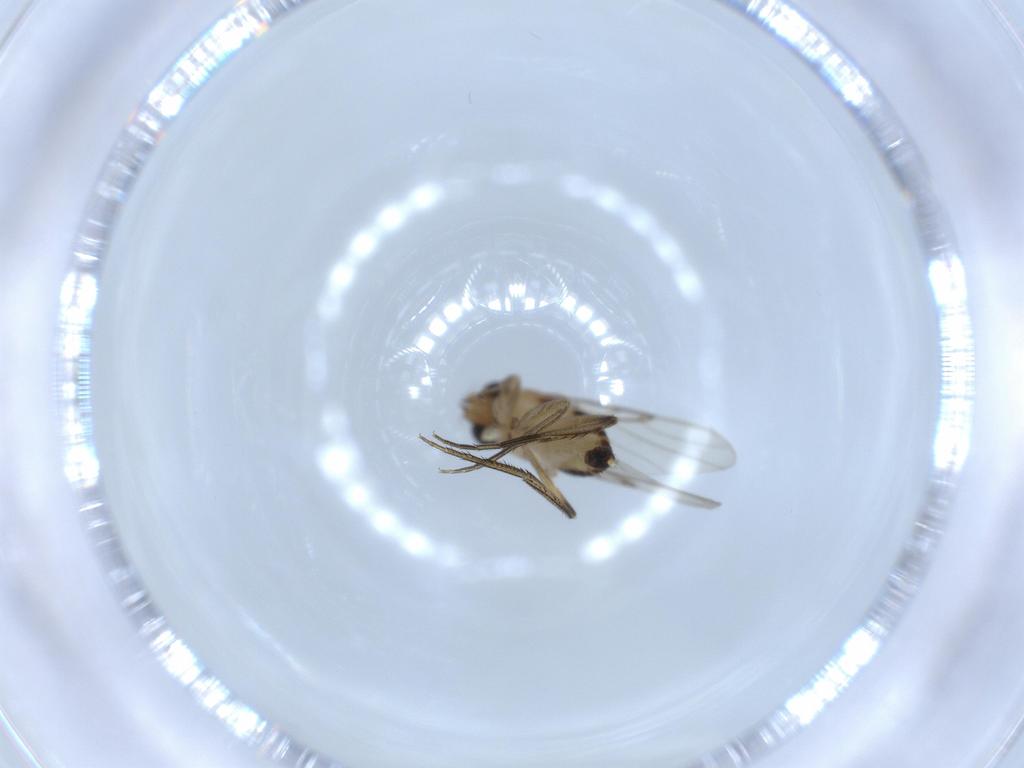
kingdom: Animalia
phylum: Arthropoda
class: Insecta
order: Diptera
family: Phoridae
